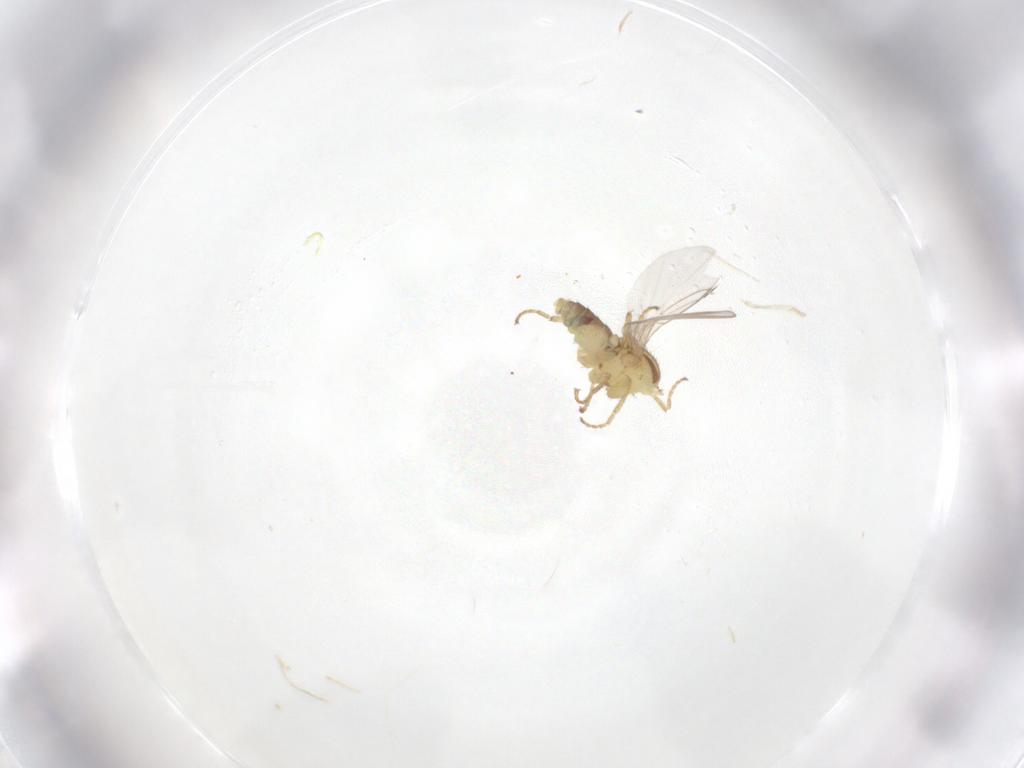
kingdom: Animalia
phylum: Arthropoda
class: Insecta
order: Diptera
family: Agromyzidae
